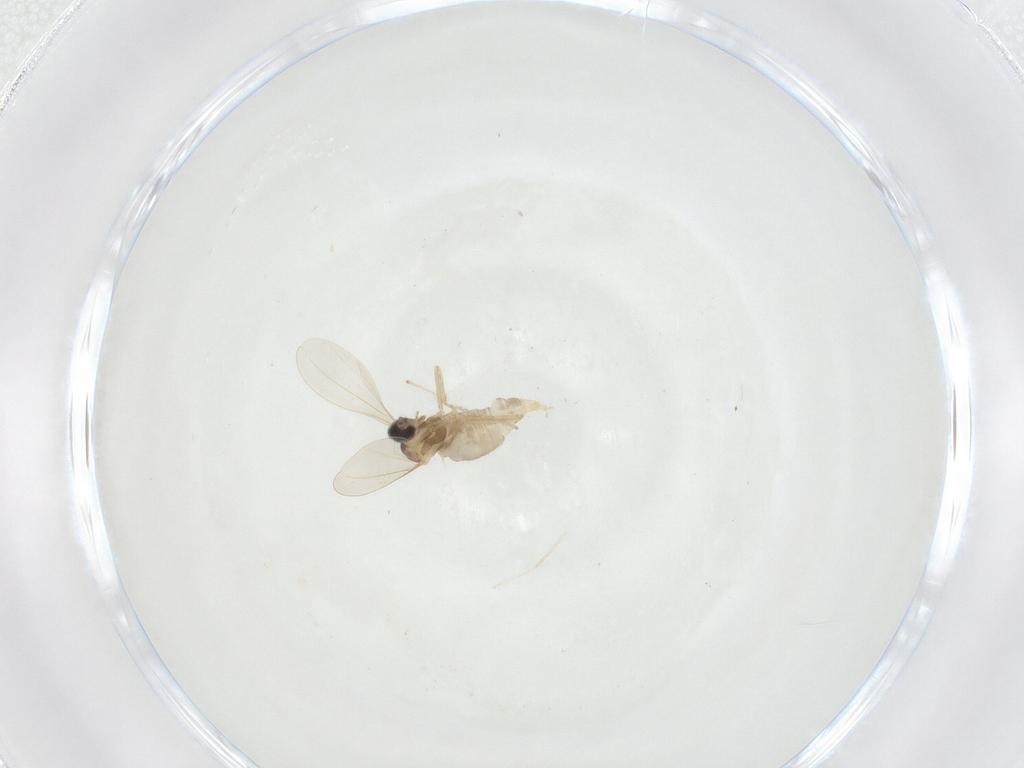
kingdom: Animalia
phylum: Arthropoda
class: Insecta
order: Diptera
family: Cecidomyiidae
